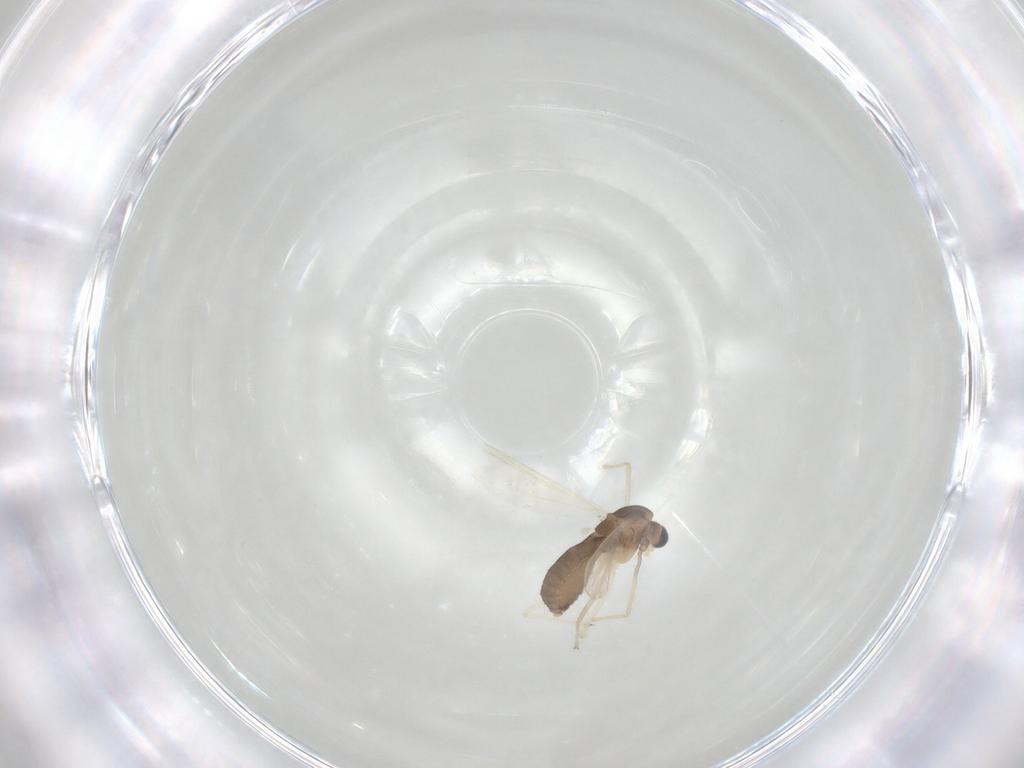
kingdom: Animalia
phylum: Arthropoda
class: Insecta
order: Diptera
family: Chironomidae
